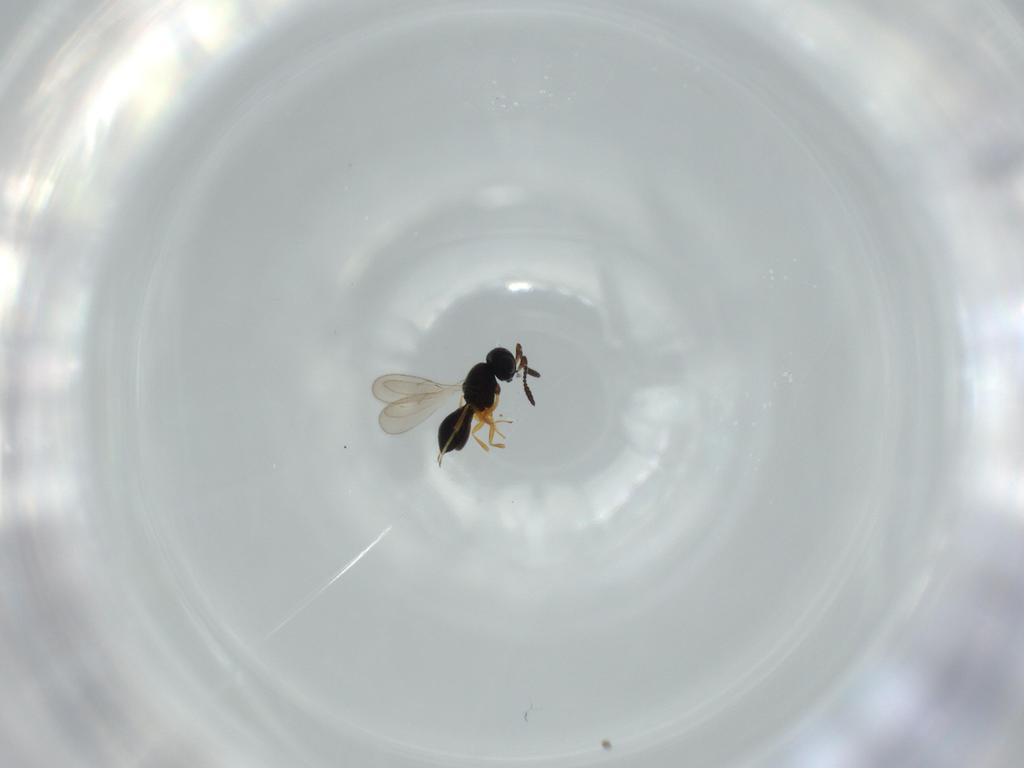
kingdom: Animalia
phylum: Arthropoda
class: Insecta
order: Hymenoptera
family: Scelionidae
